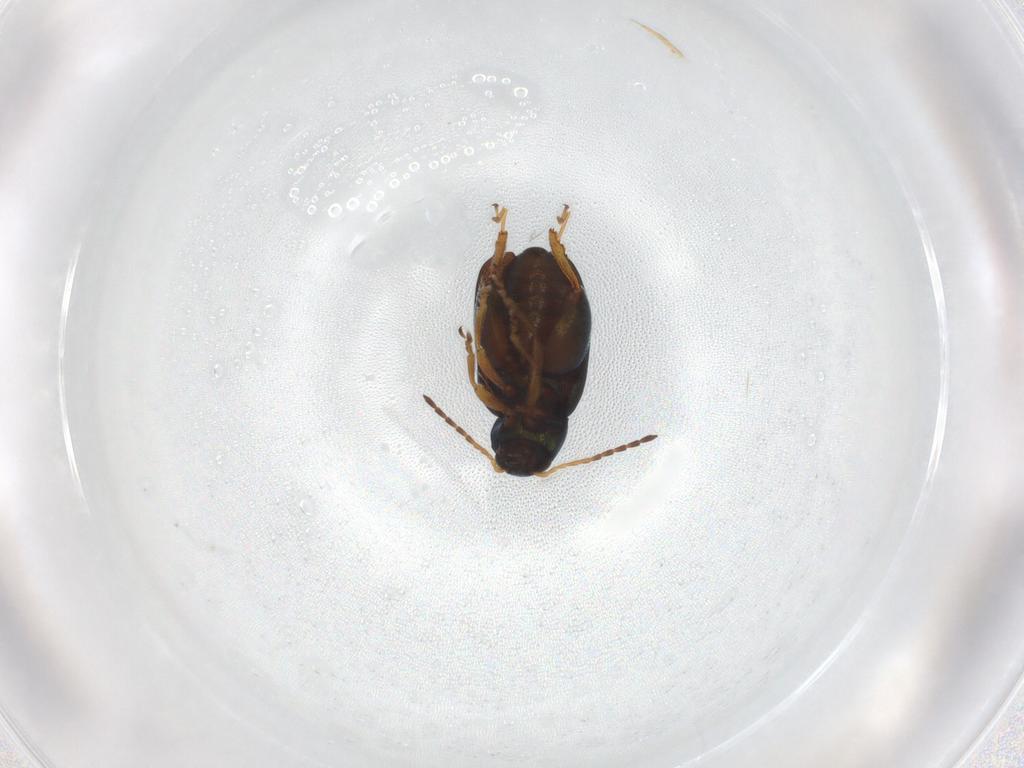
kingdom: Animalia
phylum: Arthropoda
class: Insecta
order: Coleoptera
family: Chrysomelidae
